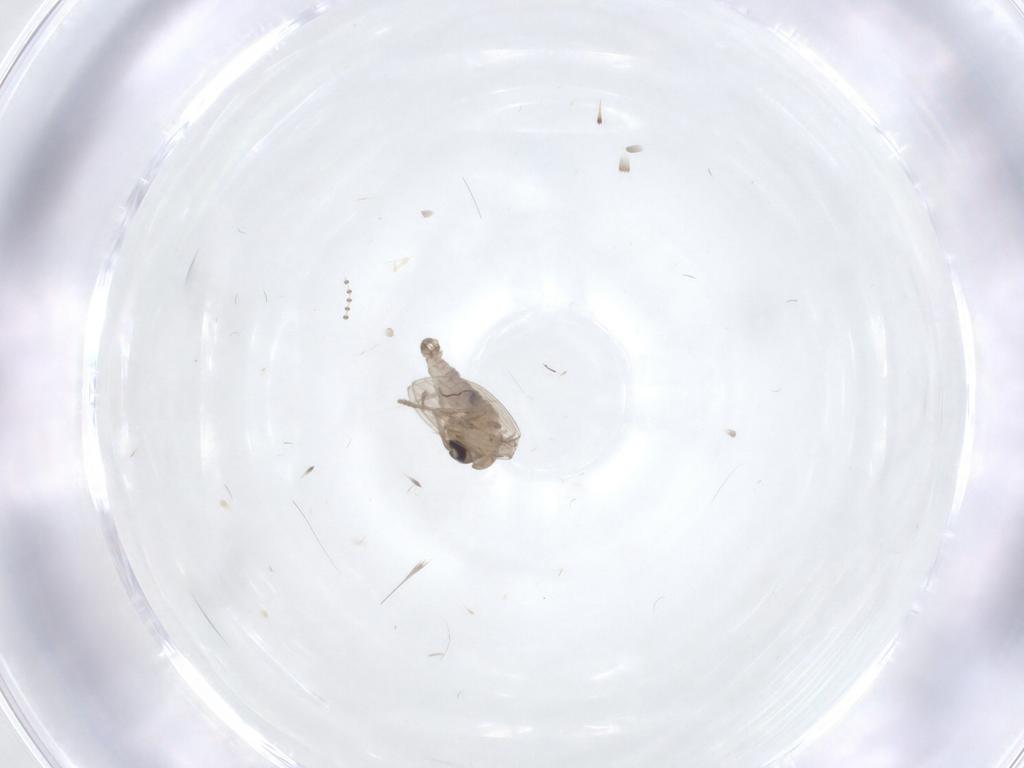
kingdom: Animalia
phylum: Arthropoda
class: Insecta
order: Diptera
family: Psychodidae
